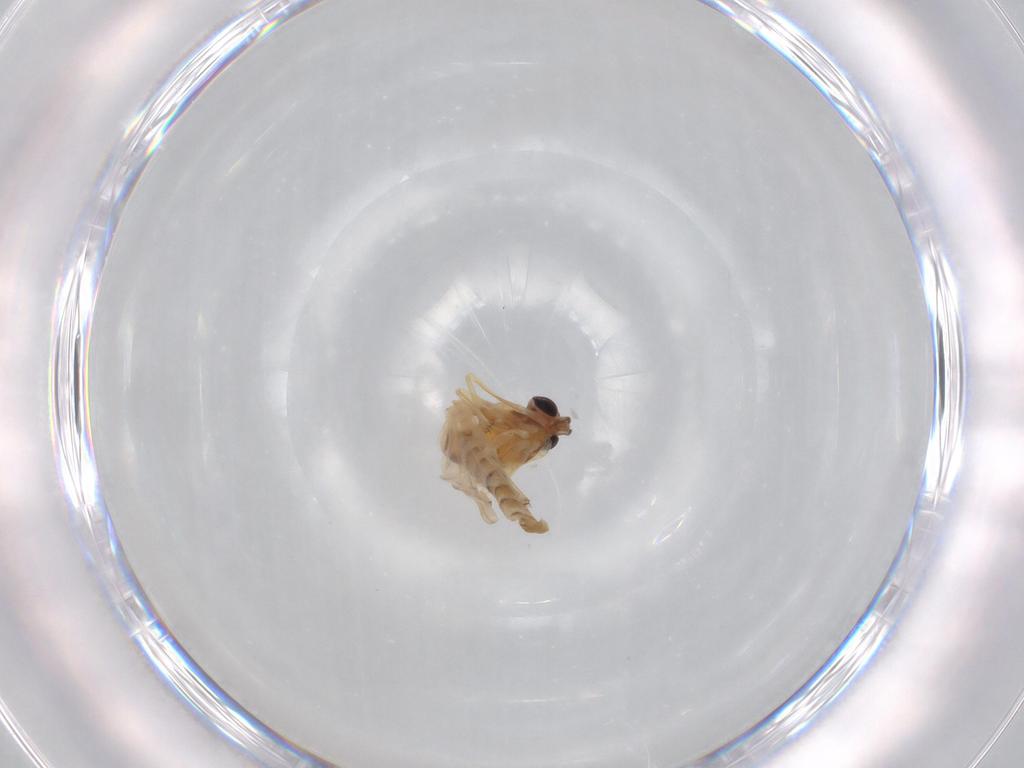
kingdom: Animalia
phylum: Arthropoda
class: Insecta
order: Diptera
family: Chironomidae
